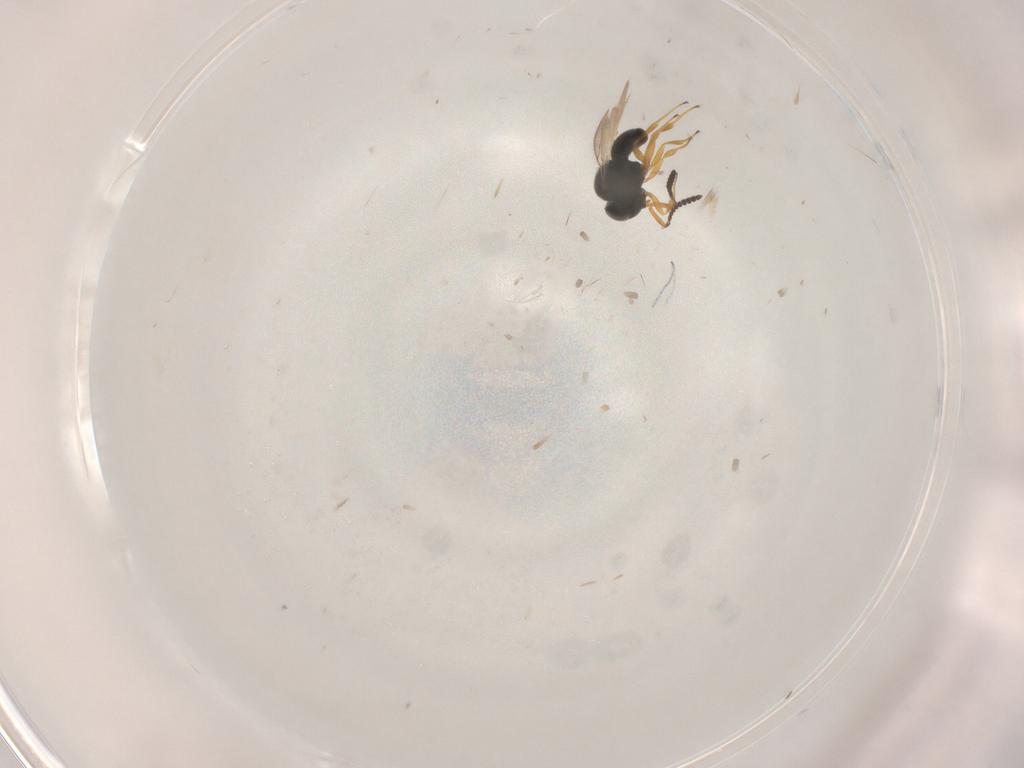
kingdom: Animalia
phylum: Arthropoda
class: Insecta
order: Hymenoptera
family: Scelionidae
